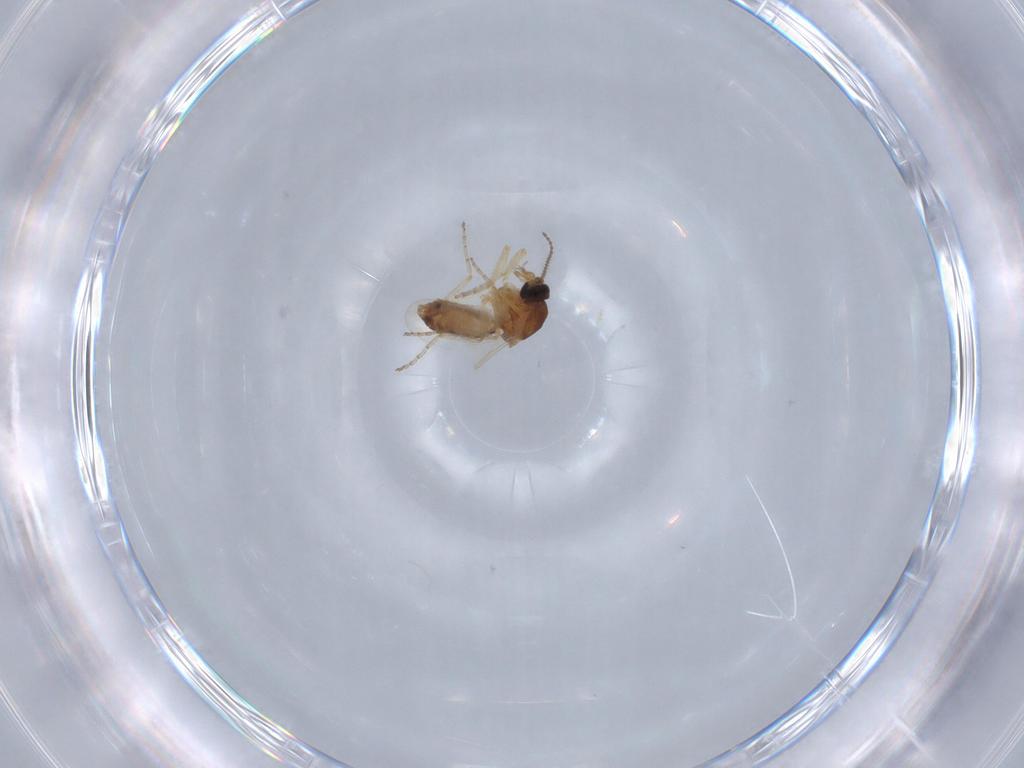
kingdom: Animalia
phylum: Arthropoda
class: Insecta
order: Diptera
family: Ceratopogonidae
